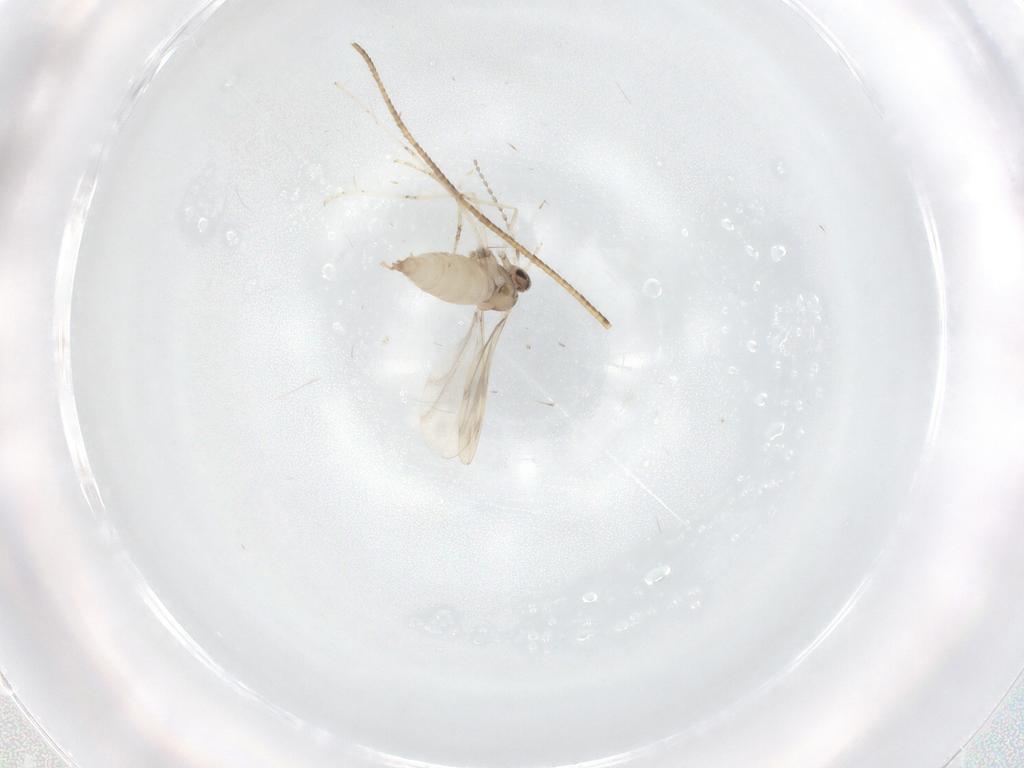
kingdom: Animalia
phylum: Arthropoda
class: Insecta
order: Diptera
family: Cecidomyiidae
